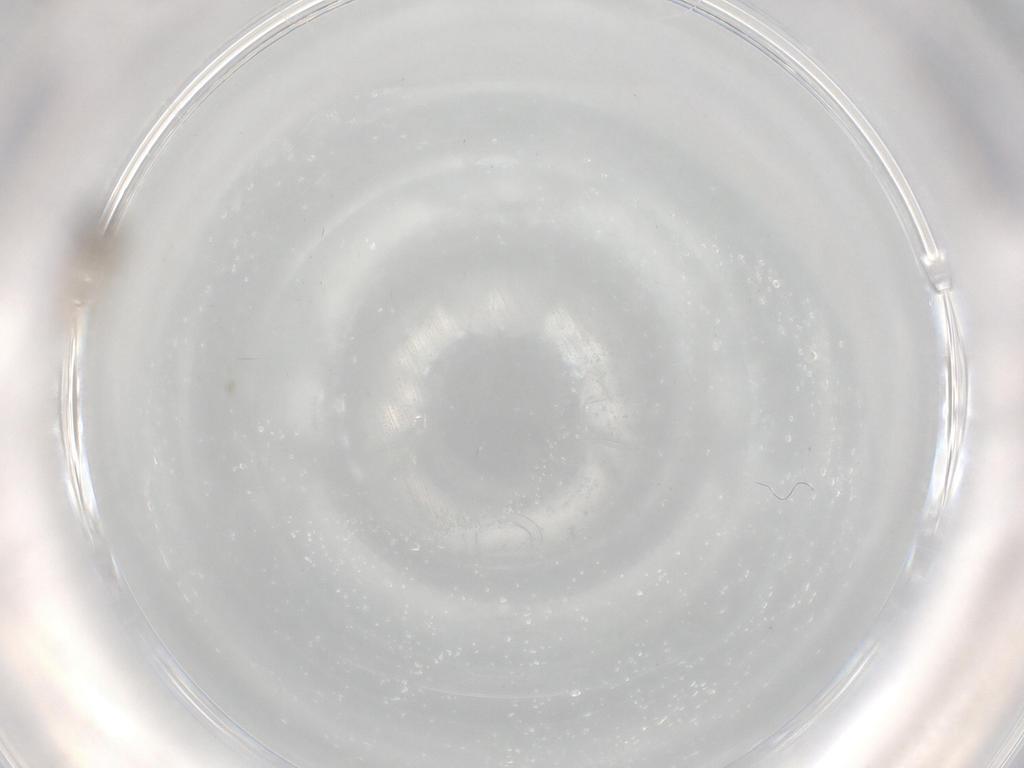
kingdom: Animalia
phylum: Arthropoda
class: Insecta
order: Diptera
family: Cecidomyiidae
